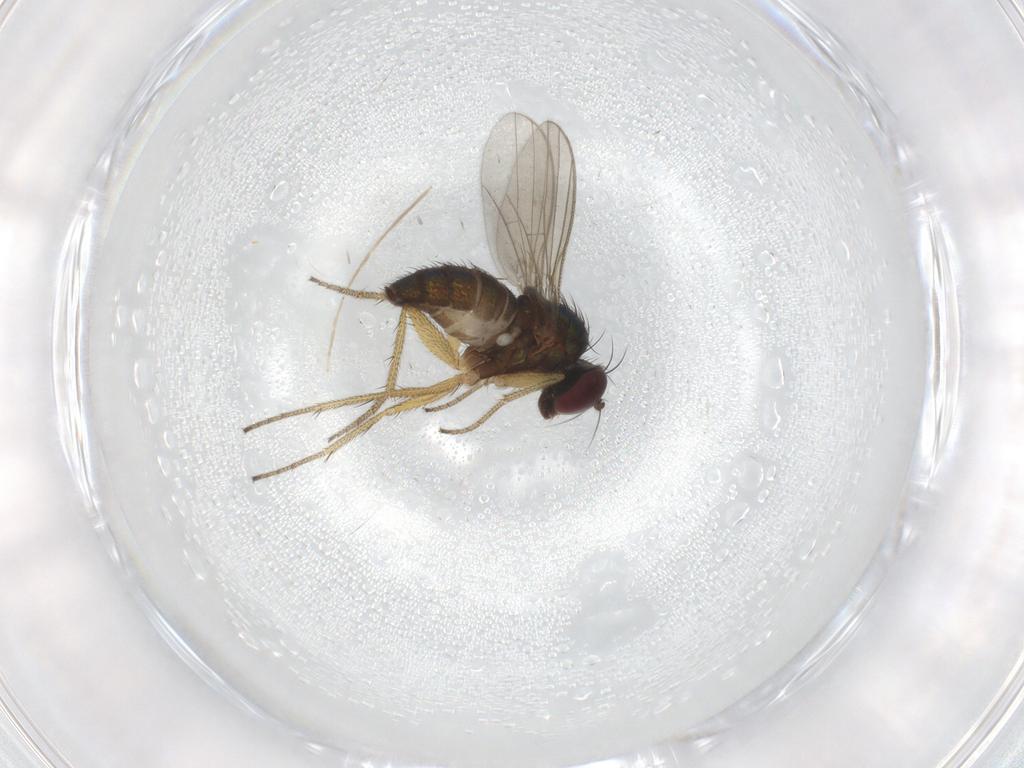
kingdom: Animalia
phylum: Arthropoda
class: Insecta
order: Diptera
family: Chironomidae
